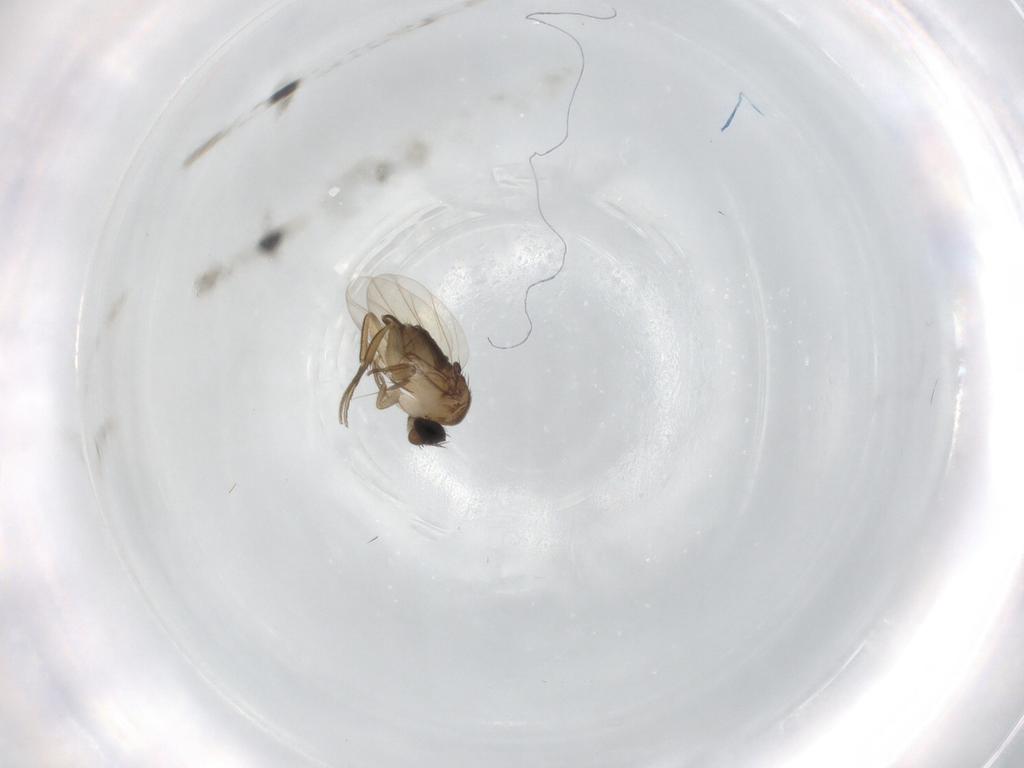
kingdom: Animalia
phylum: Arthropoda
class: Insecta
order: Diptera
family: Phoridae
